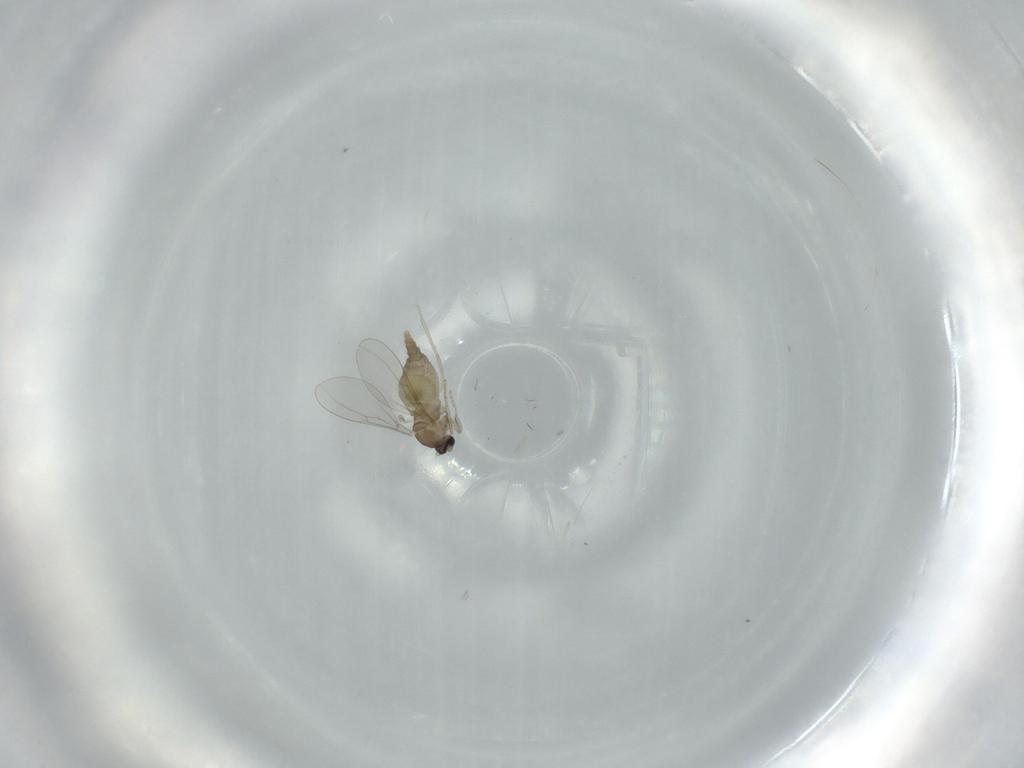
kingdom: Animalia
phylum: Arthropoda
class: Insecta
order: Diptera
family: Cecidomyiidae
